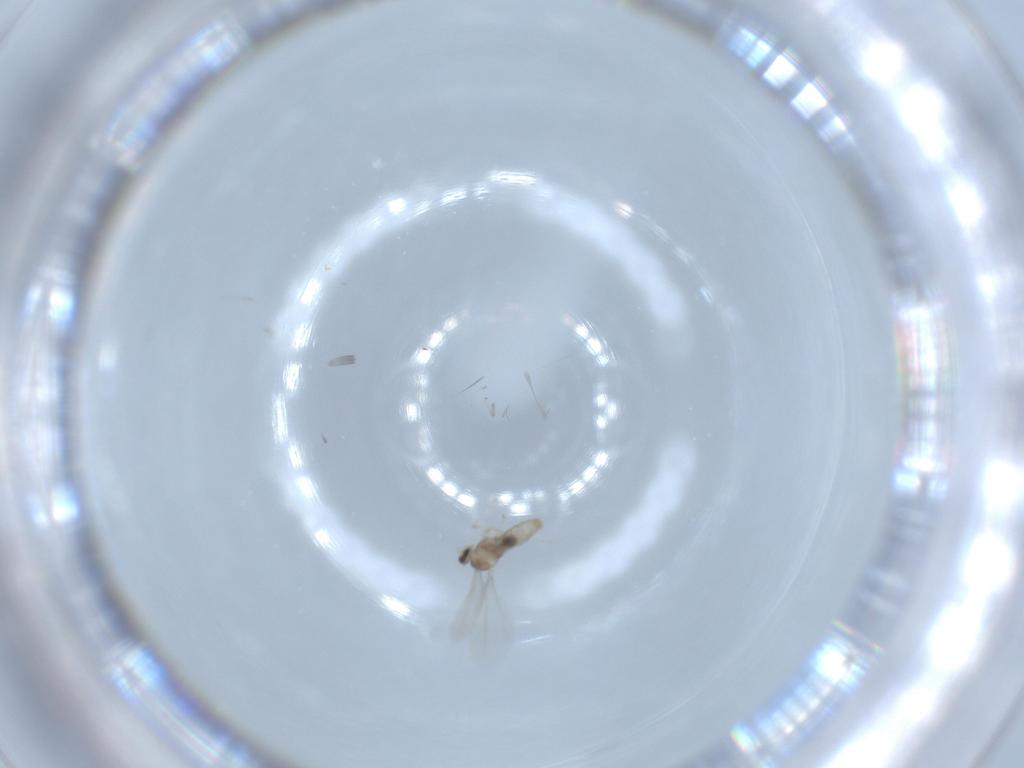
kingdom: Animalia
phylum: Arthropoda
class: Insecta
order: Diptera
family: Cecidomyiidae
